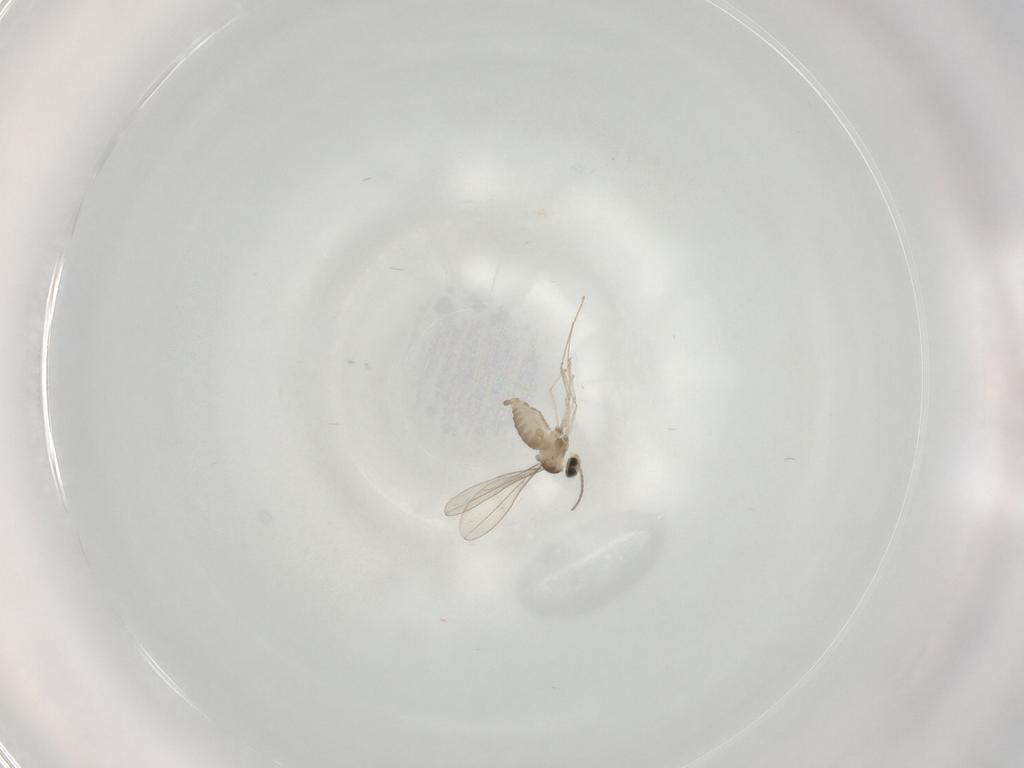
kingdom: Animalia
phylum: Arthropoda
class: Insecta
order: Diptera
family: Cecidomyiidae
